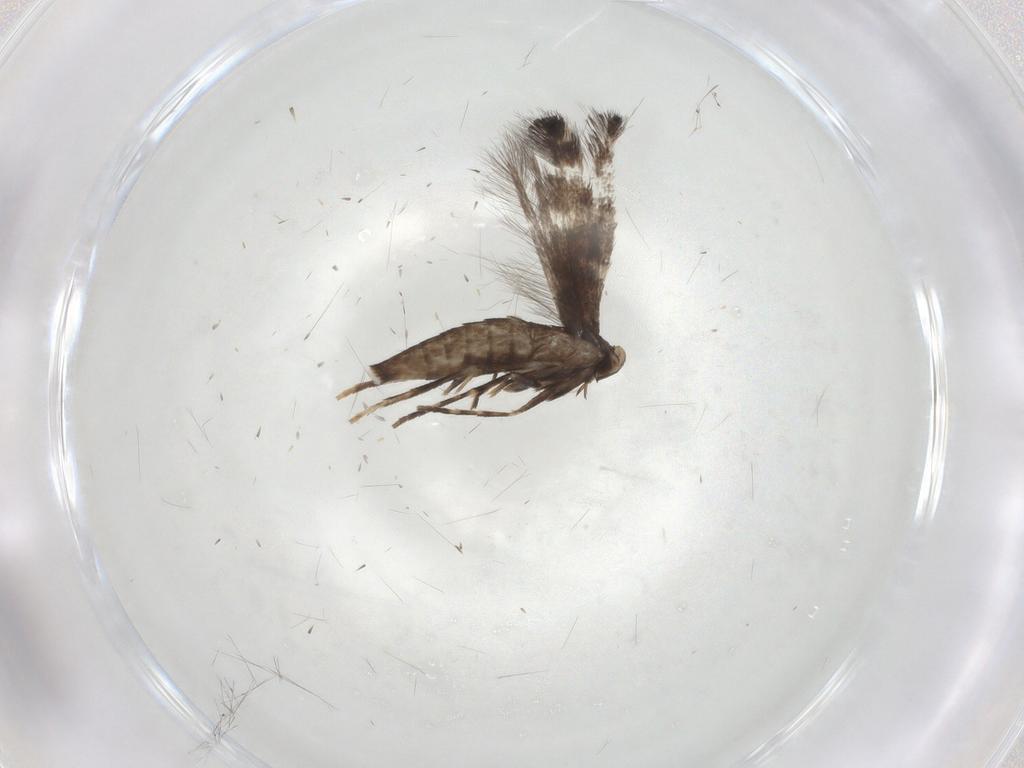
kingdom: Animalia
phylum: Arthropoda
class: Insecta
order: Lepidoptera
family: Gracillariidae
